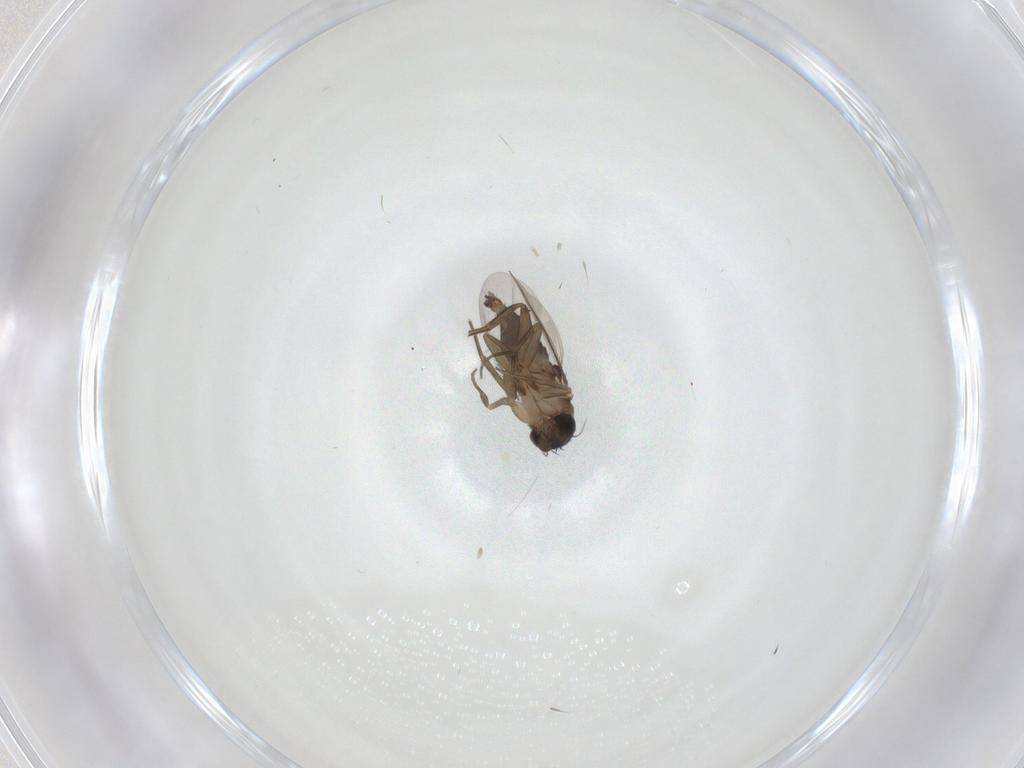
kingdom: Animalia
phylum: Arthropoda
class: Insecta
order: Diptera
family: Phoridae
